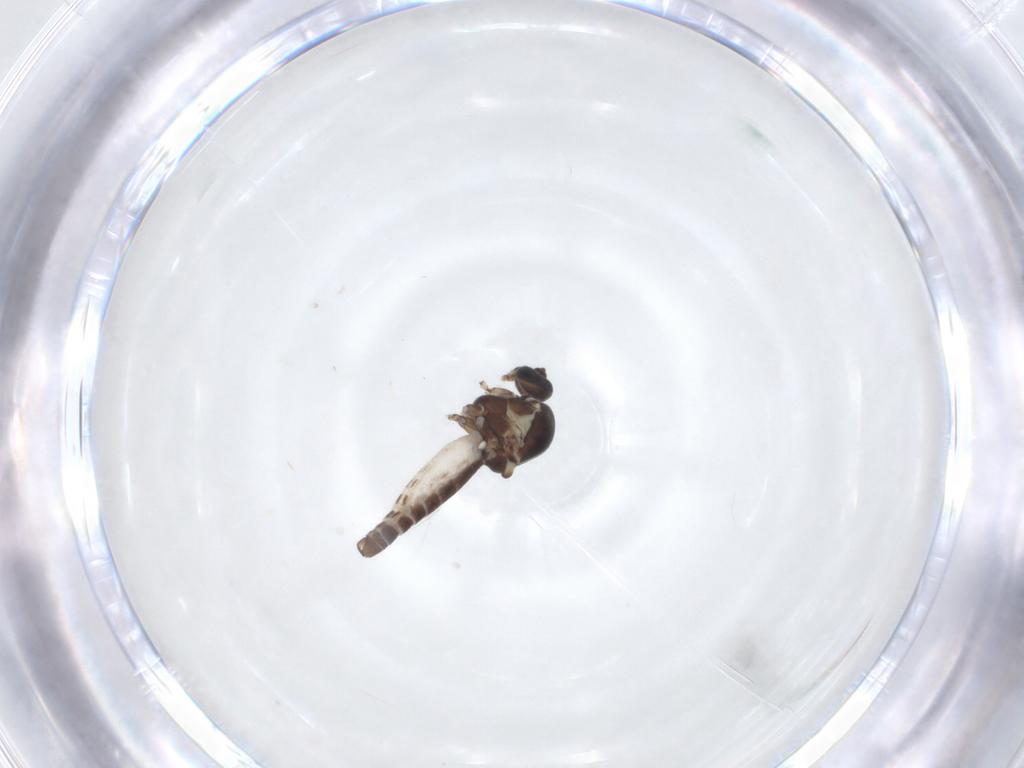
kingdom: Animalia
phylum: Arthropoda
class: Insecta
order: Diptera
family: Ceratopogonidae
